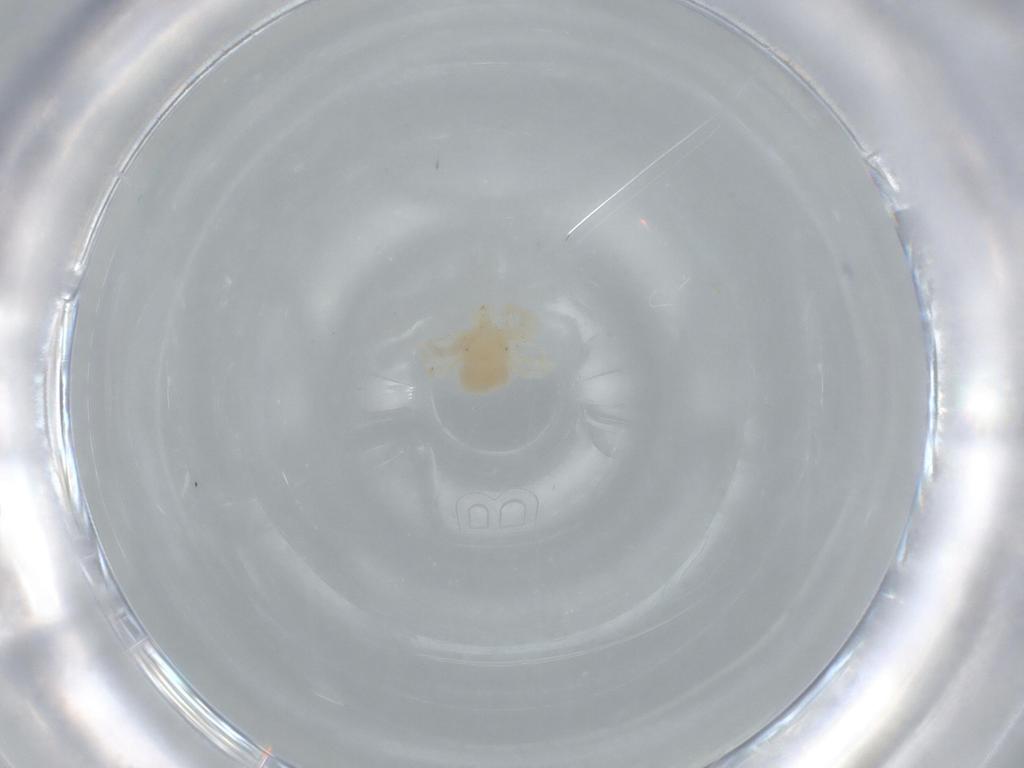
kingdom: Animalia
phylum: Arthropoda
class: Arachnida
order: Trombidiformes
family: Anystidae
